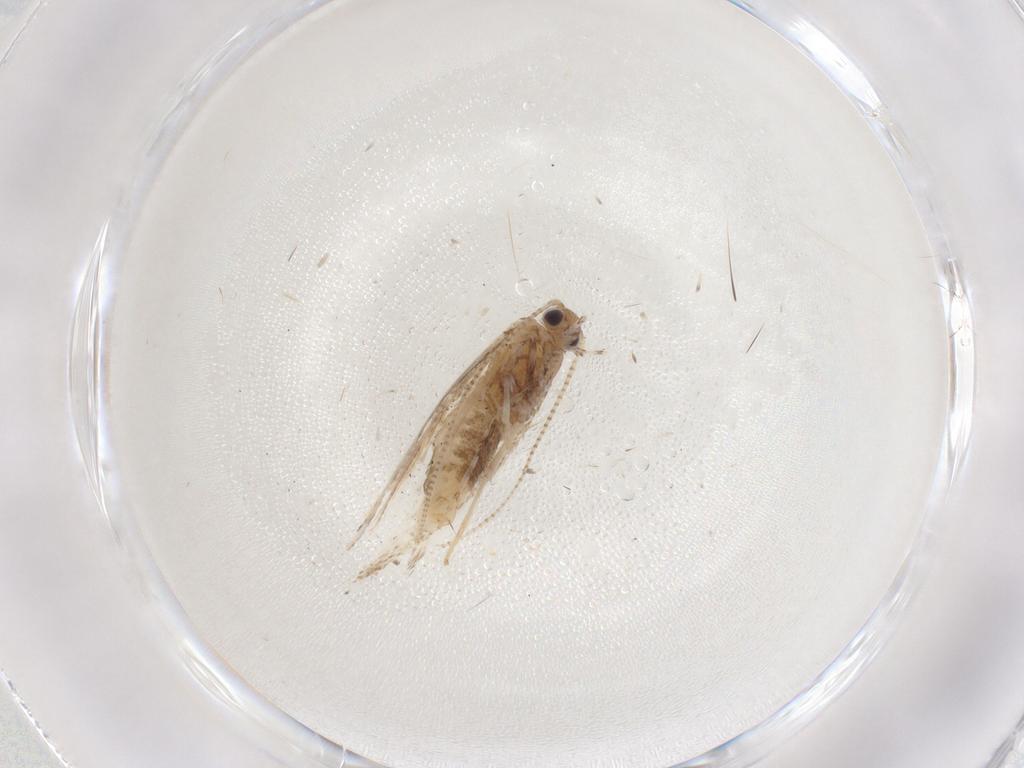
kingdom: Animalia
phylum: Arthropoda
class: Insecta
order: Lepidoptera
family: Gracillariidae
